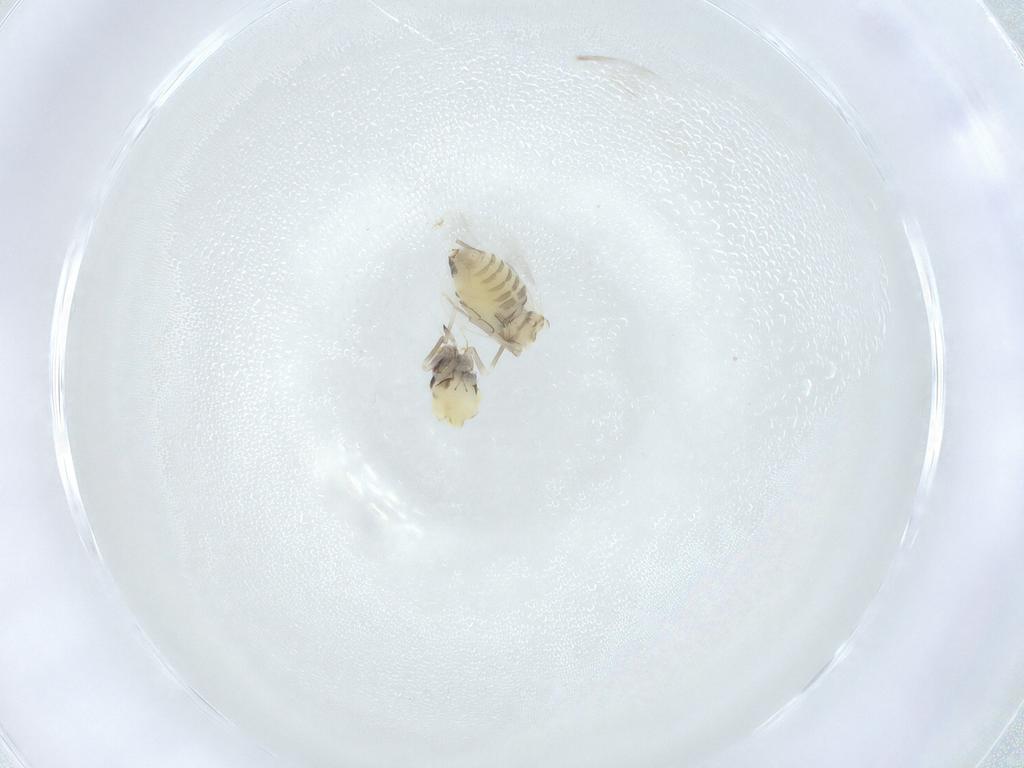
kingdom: Animalia
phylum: Arthropoda
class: Insecta
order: Hemiptera
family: Aleyrodidae
